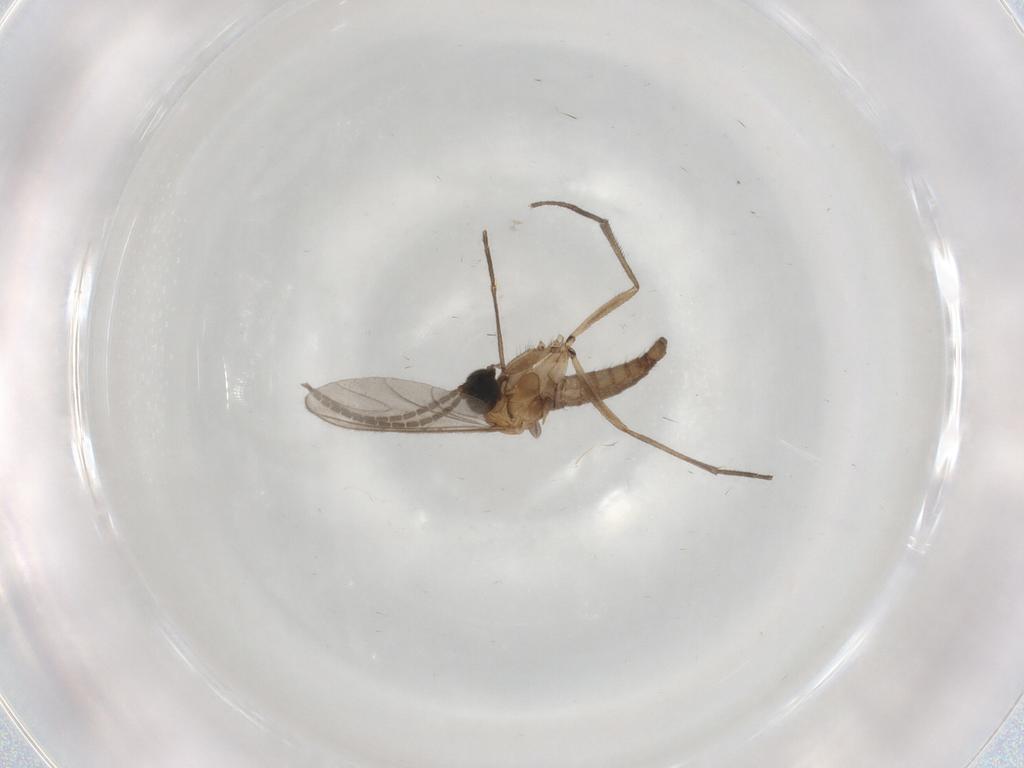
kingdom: Animalia
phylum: Arthropoda
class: Insecta
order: Diptera
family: Sciaridae
